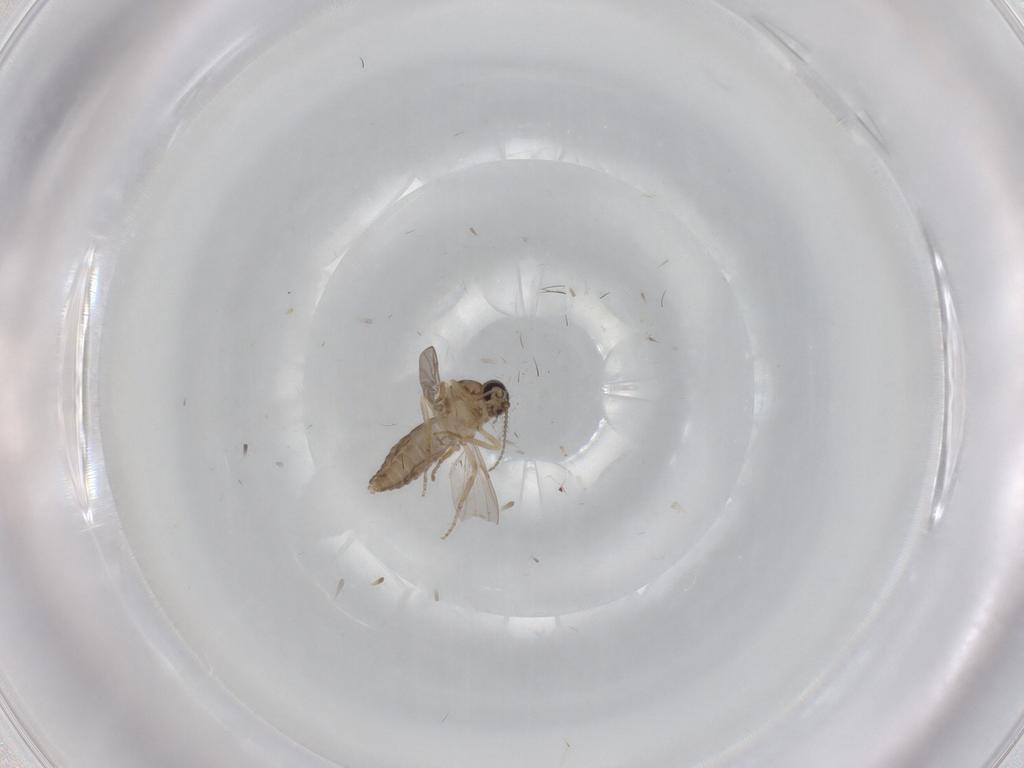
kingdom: Animalia
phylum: Arthropoda
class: Insecta
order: Diptera
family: Ceratopogonidae
